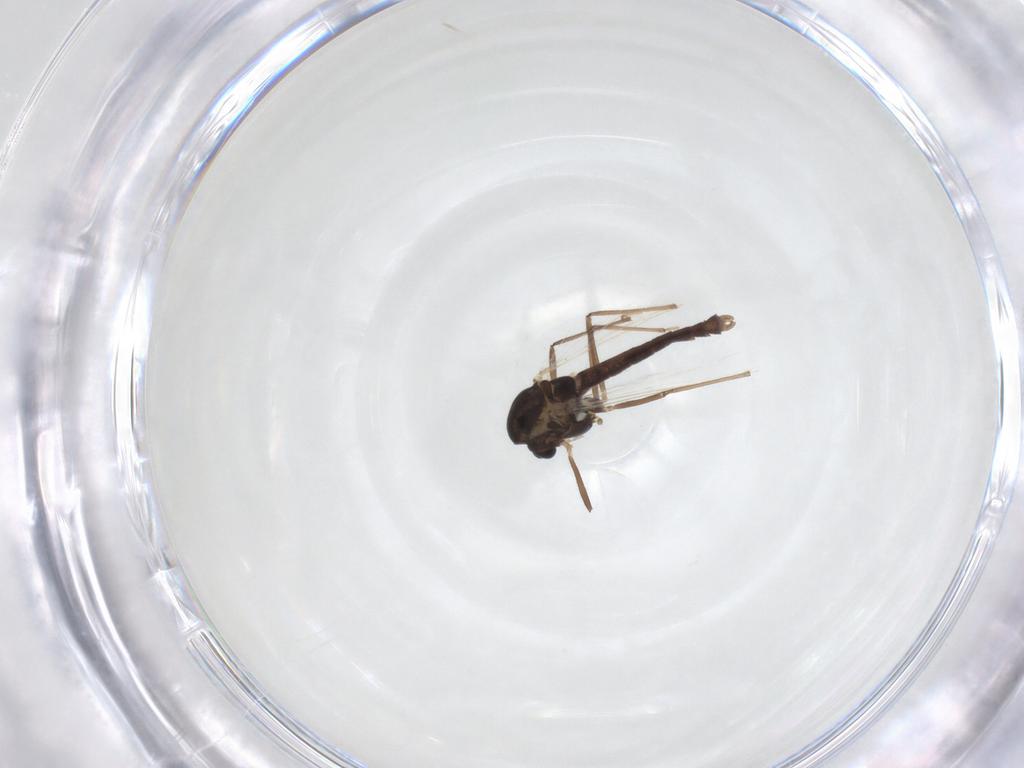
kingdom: Animalia
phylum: Arthropoda
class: Insecta
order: Diptera
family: Chironomidae
